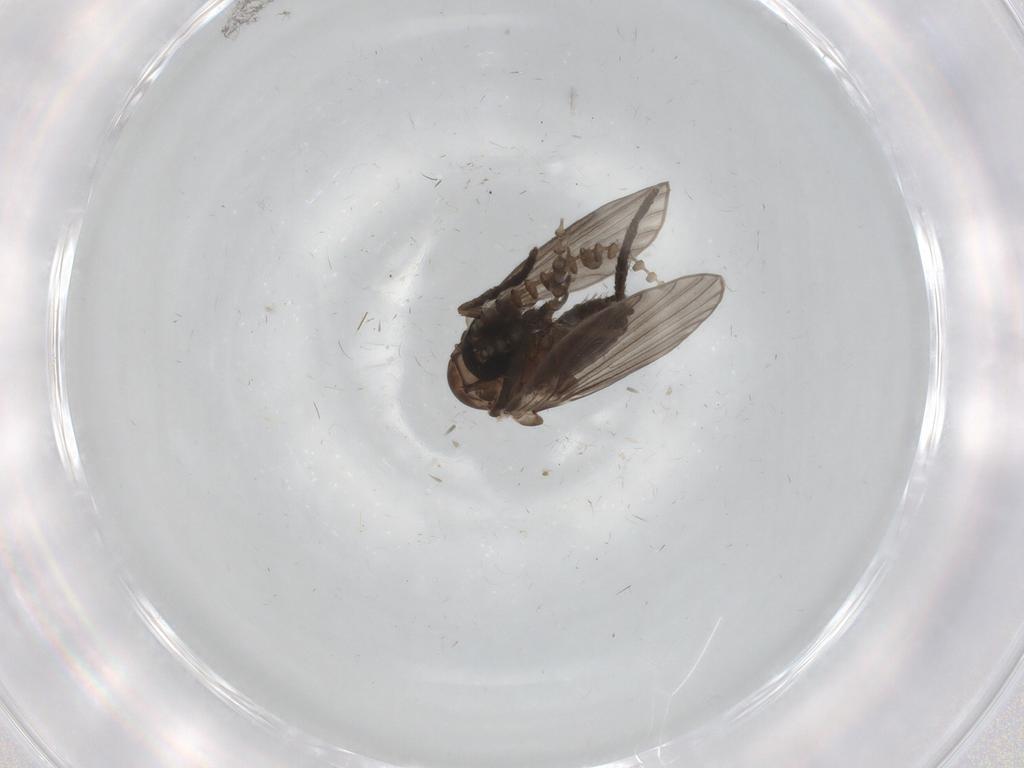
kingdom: Animalia
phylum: Arthropoda
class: Insecta
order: Diptera
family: Psychodidae
